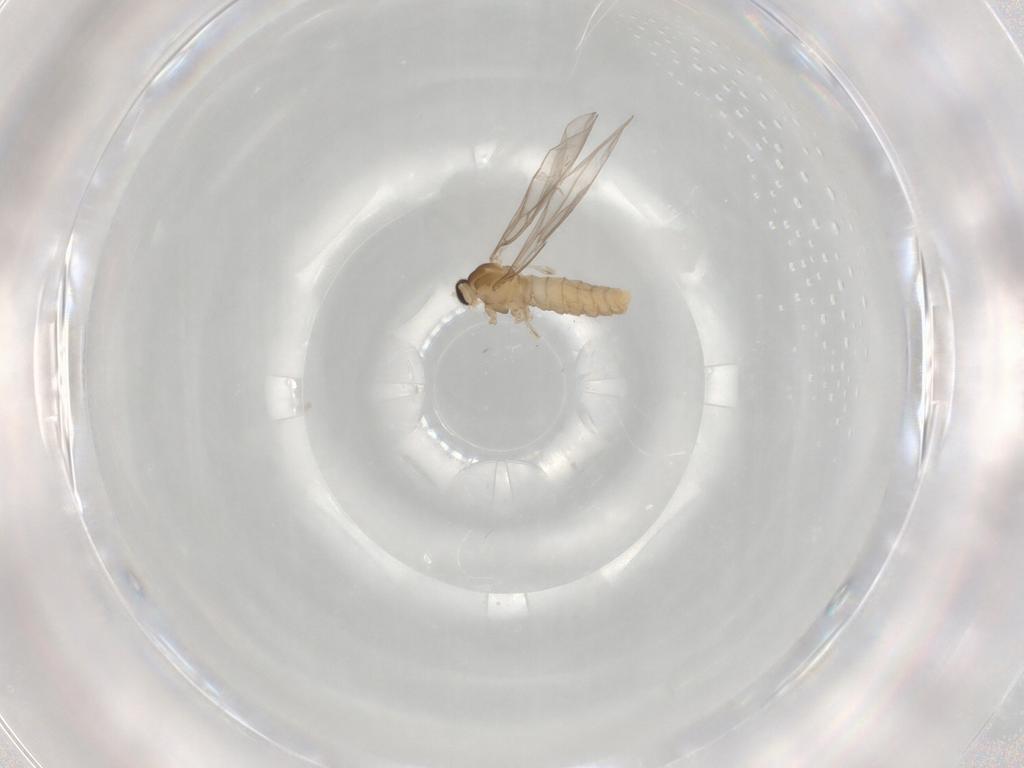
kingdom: Animalia
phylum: Arthropoda
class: Insecta
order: Diptera
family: Cecidomyiidae
